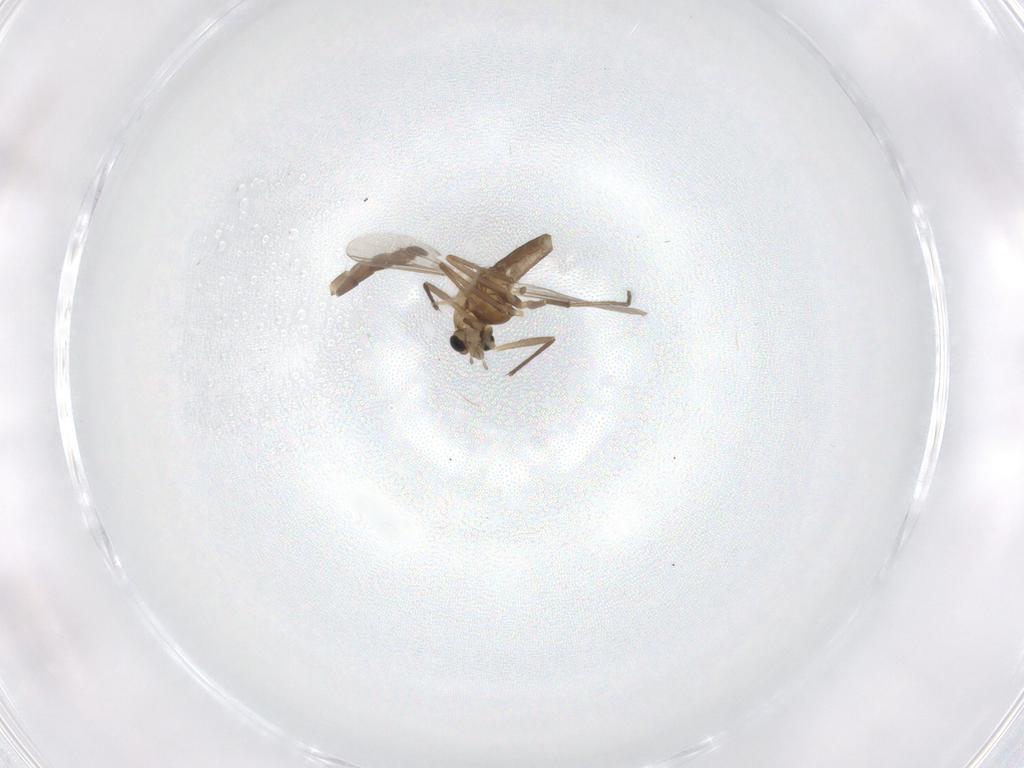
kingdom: Animalia
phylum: Arthropoda
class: Insecta
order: Diptera
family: Chironomidae
